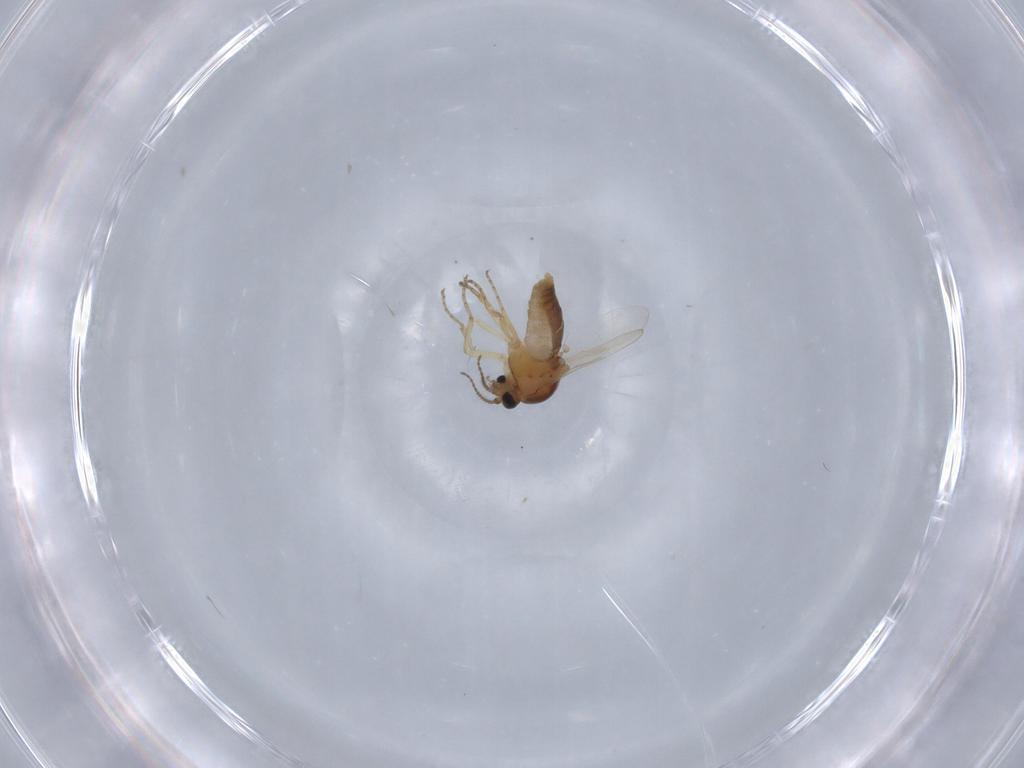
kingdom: Animalia
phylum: Arthropoda
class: Insecta
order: Diptera
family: Ceratopogonidae
